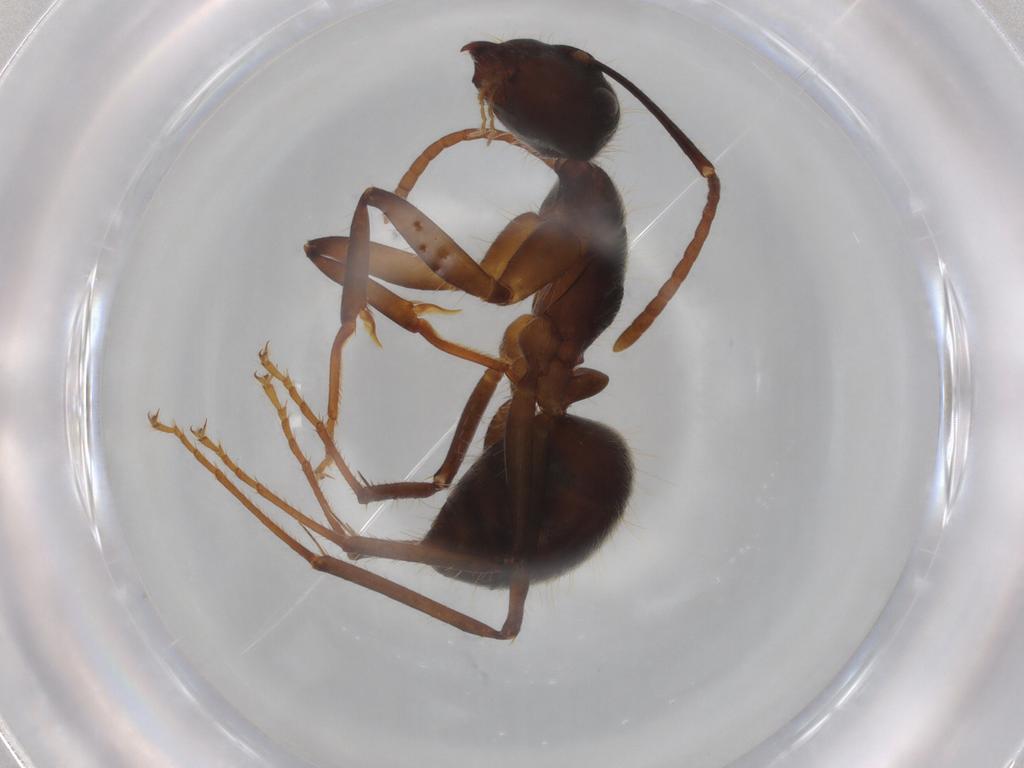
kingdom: Animalia
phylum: Arthropoda
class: Insecta
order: Hymenoptera
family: Formicidae
